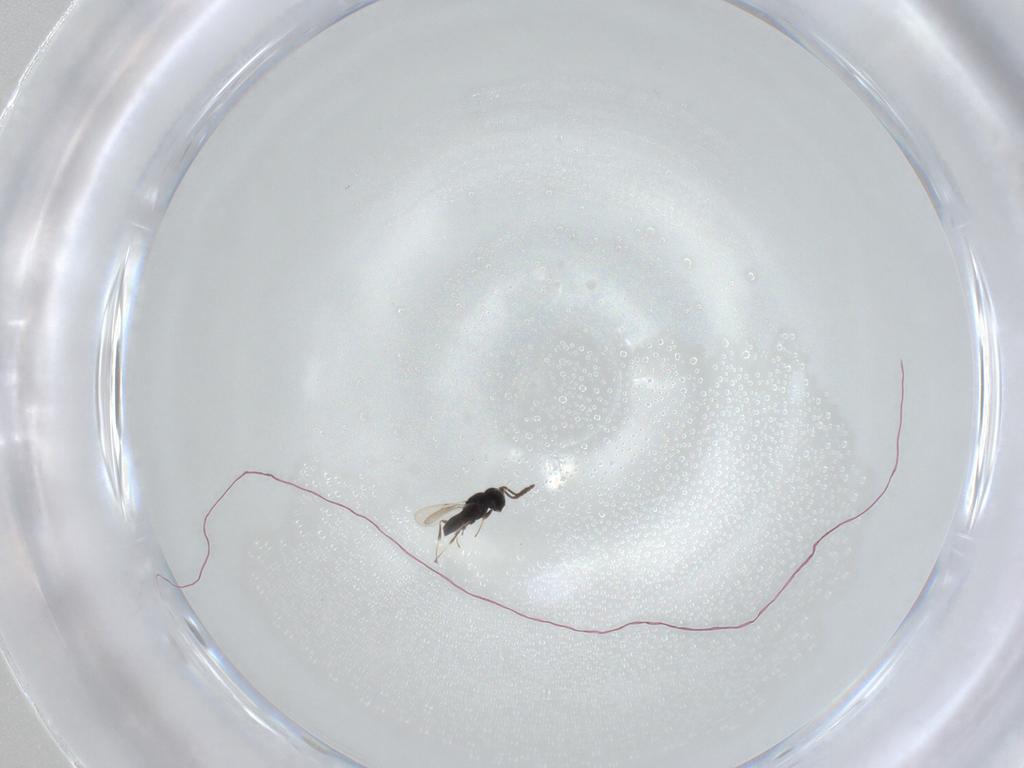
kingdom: Animalia
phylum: Arthropoda
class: Insecta
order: Hymenoptera
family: Scelionidae
